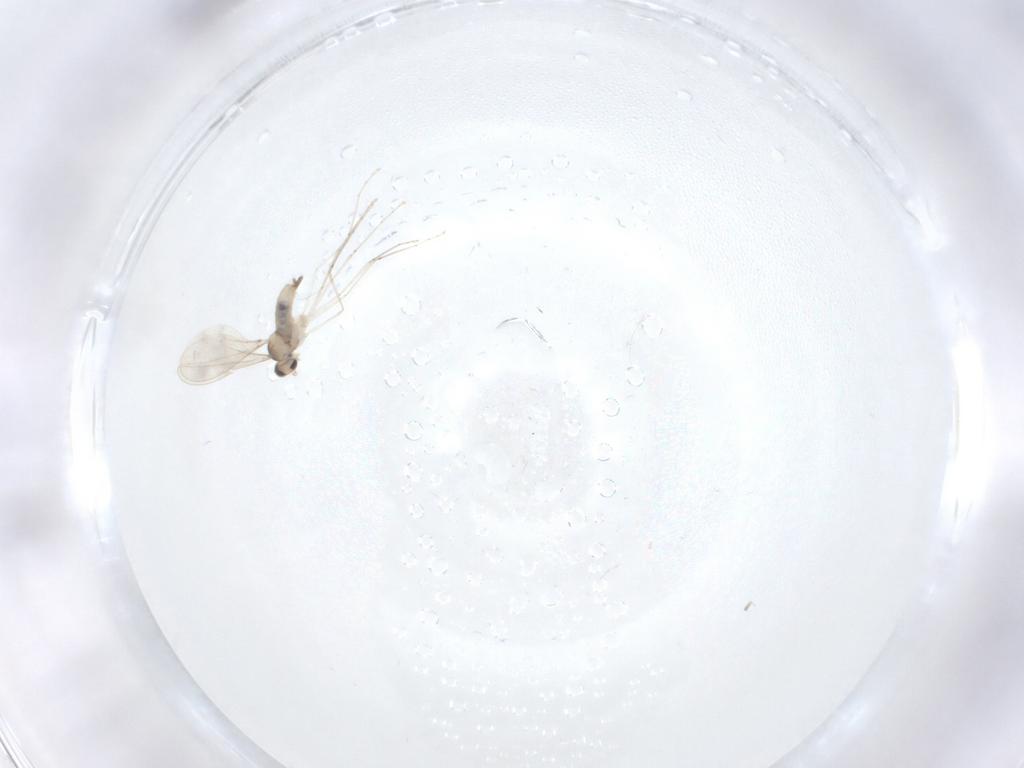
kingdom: Animalia
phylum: Arthropoda
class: Insecta
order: Diptera
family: Cecidomyiidae
